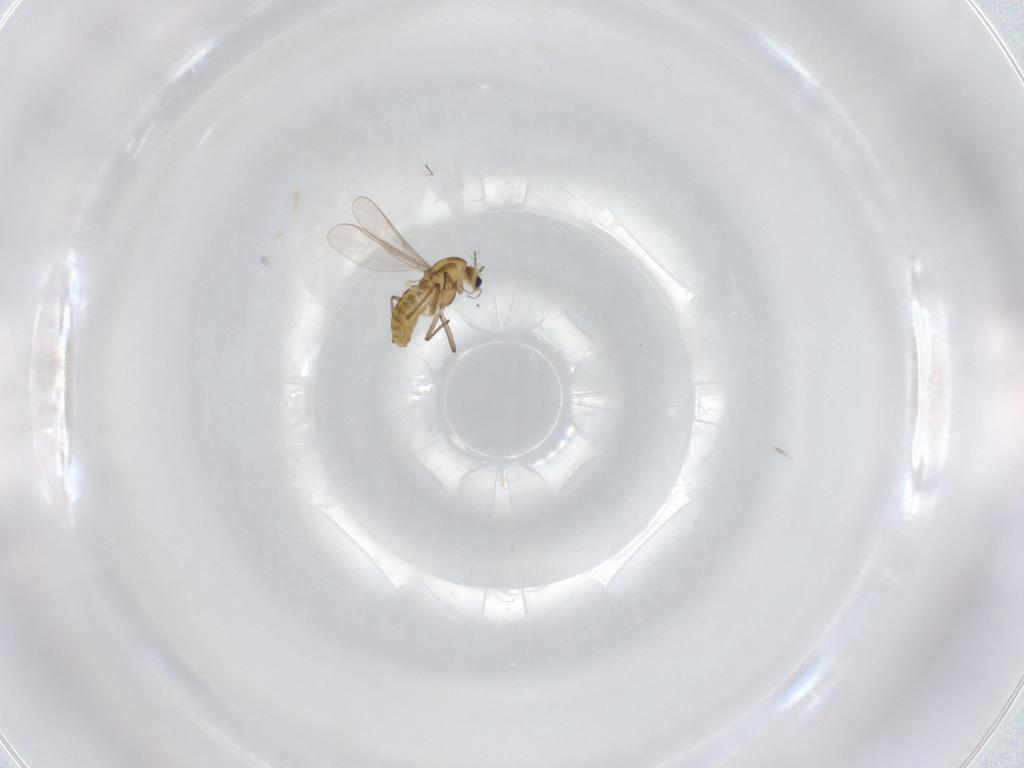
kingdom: Animalia
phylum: Arthropoda
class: Insecta
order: Diptera
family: Chironomidae
